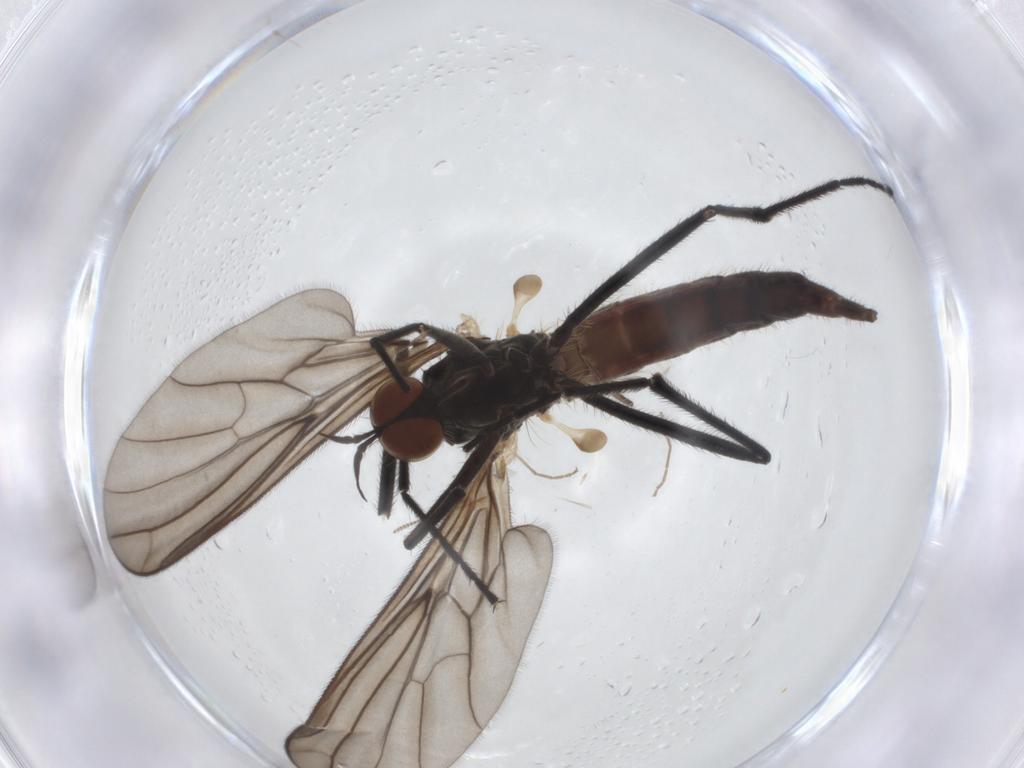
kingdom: Animalia
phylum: Arthropoda
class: Insecta
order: Diptera
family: Empididae
